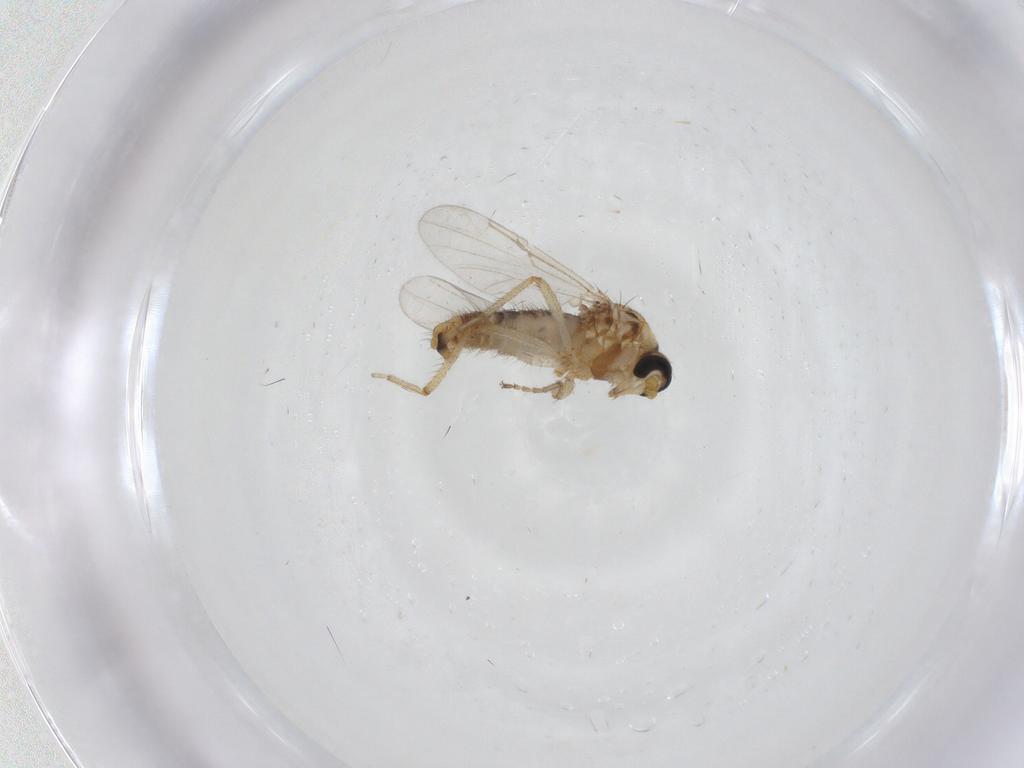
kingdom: Animalia
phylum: Arthropoda
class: Insecta
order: Diptera
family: Ceratopogonidae
